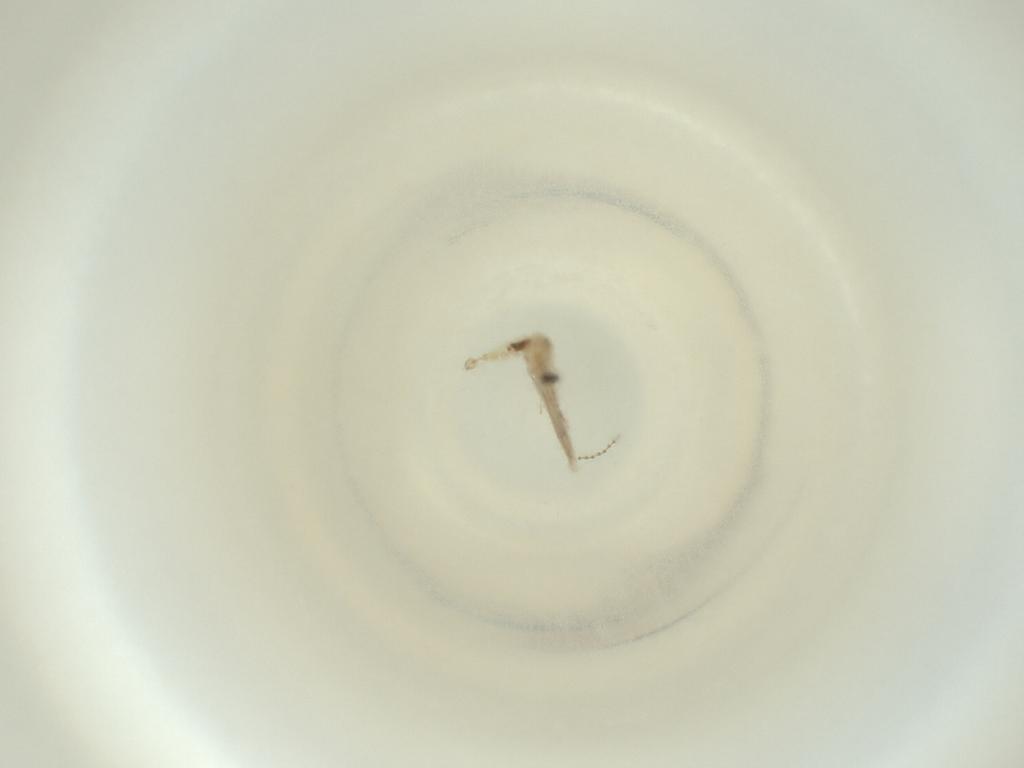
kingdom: Animalia
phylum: Arthropoda
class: Insecta
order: Diptera
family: Cecidomyiidae
